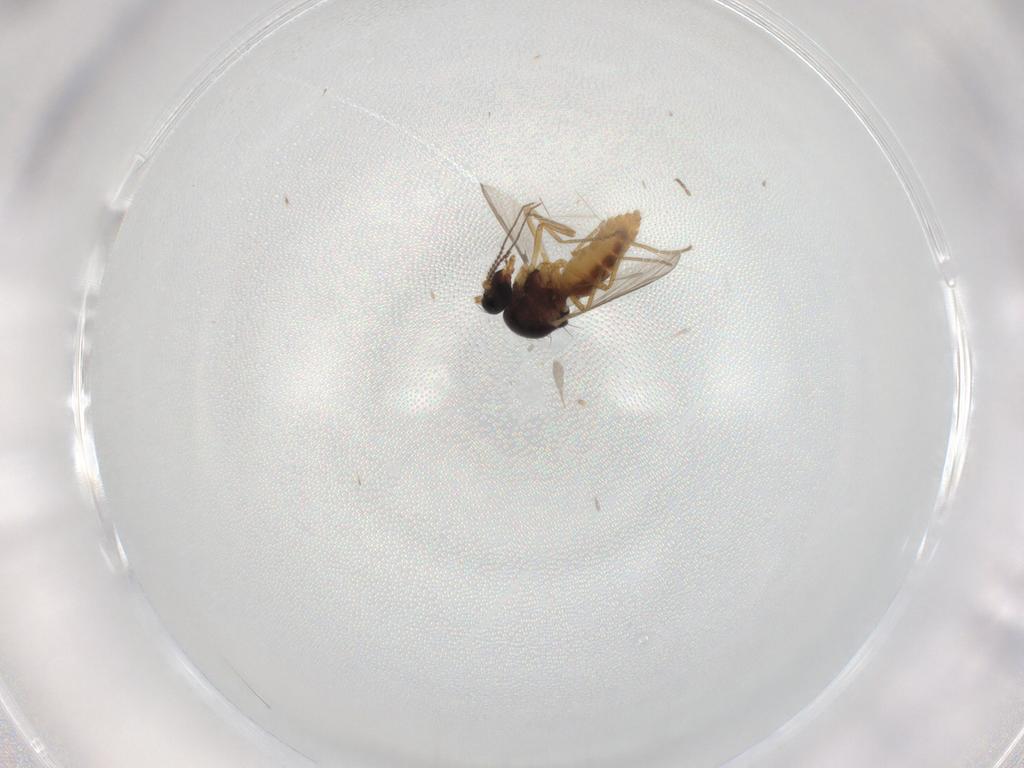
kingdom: Animalia
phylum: Arthropoda
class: Insecta
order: Diptera
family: Ceratopogonidae
